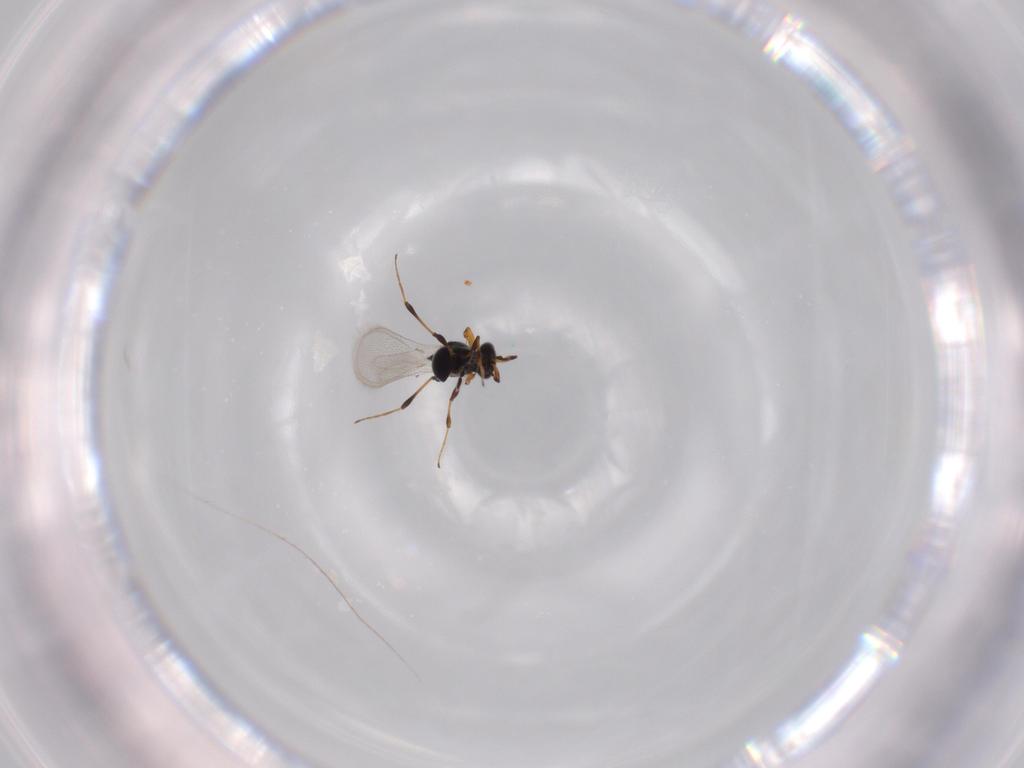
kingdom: Animalia
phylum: Arthropoda
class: Insecta
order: Hymenoptera
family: Platygastridae
